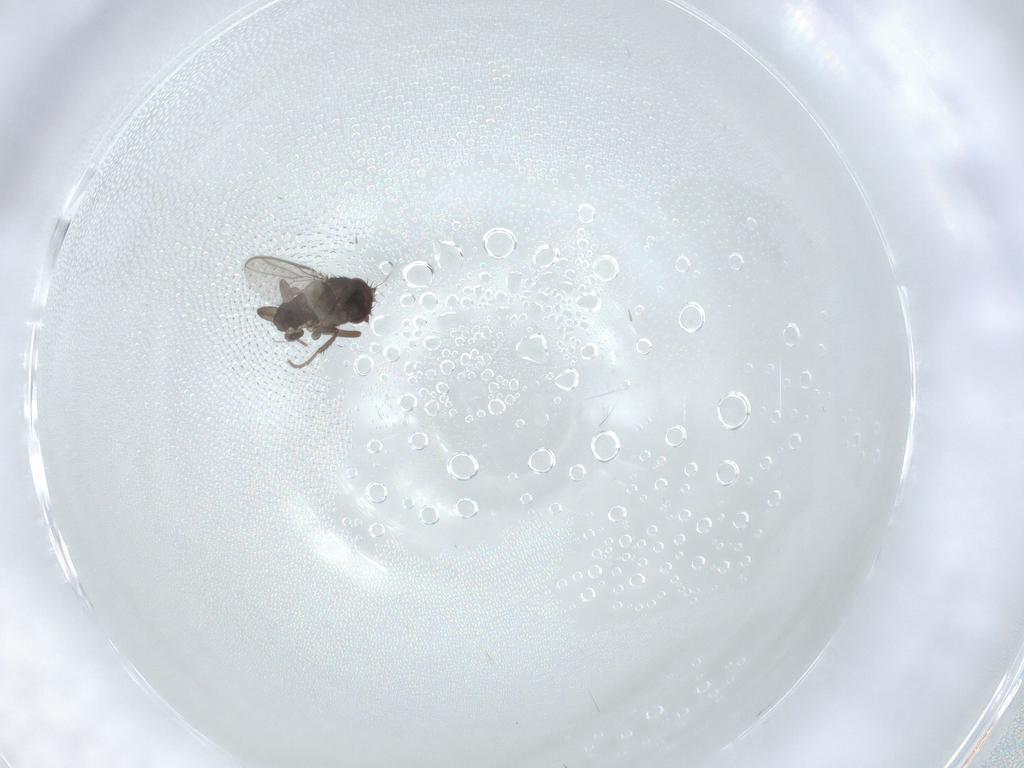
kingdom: Animalia
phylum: Arthropoda
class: Insecta
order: Diptera
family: Sphaeroceridae
